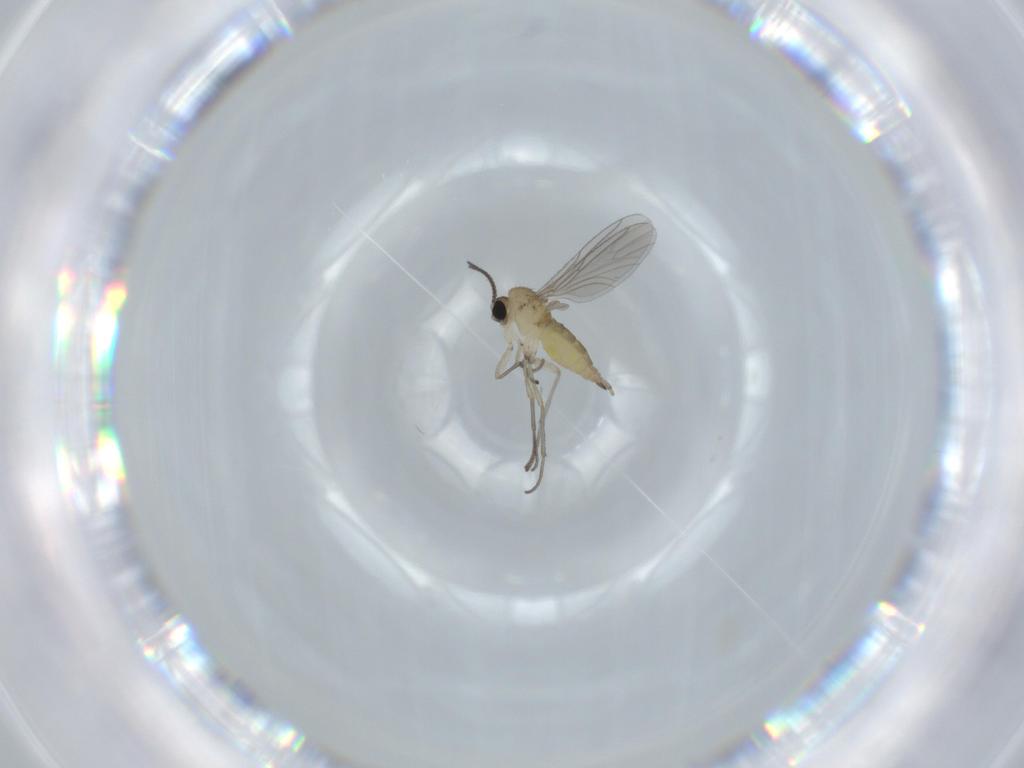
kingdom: Animalia
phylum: Arthropoda
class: Insecta
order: Diptera
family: Sciaridae
